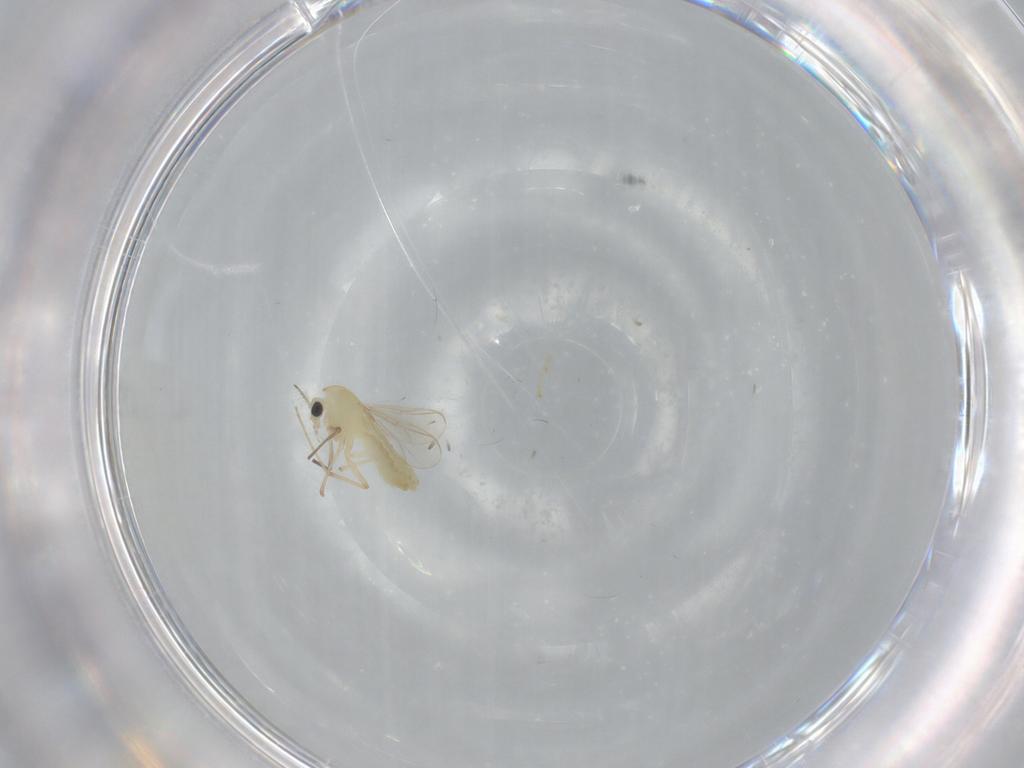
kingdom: Animalia
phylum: Arthropoda
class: Insecta
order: Diptera
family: Chironomidae
